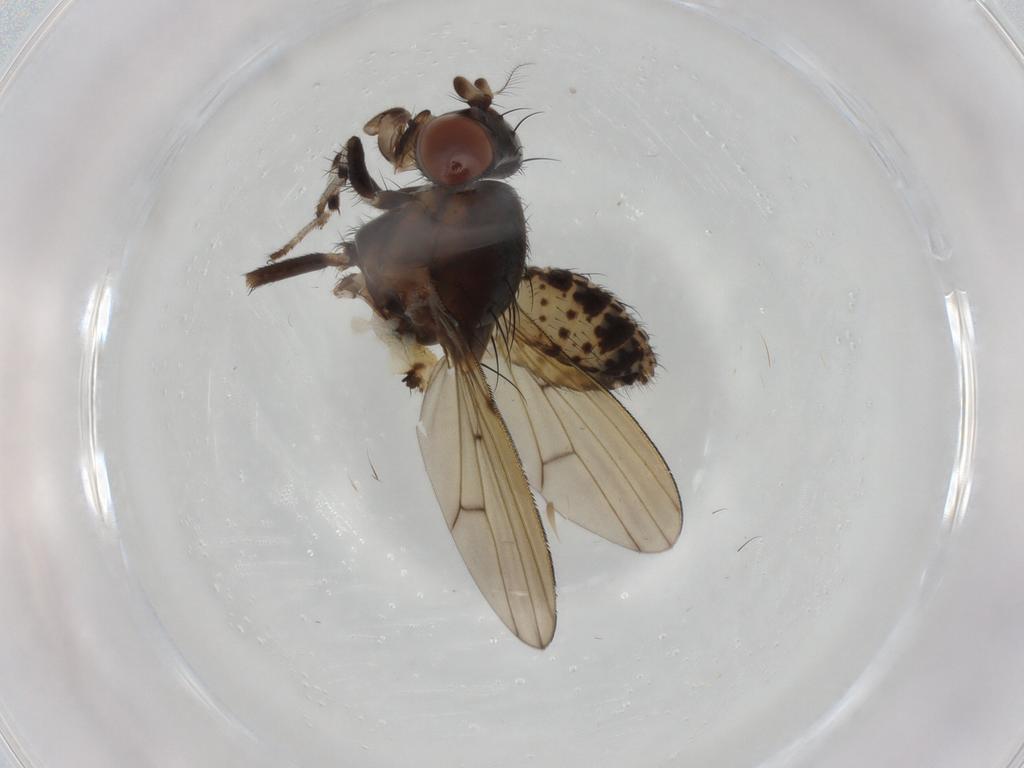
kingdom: Animalia
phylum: Arthropoda
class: Insecta
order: Diptera
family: Lauxaniidae
